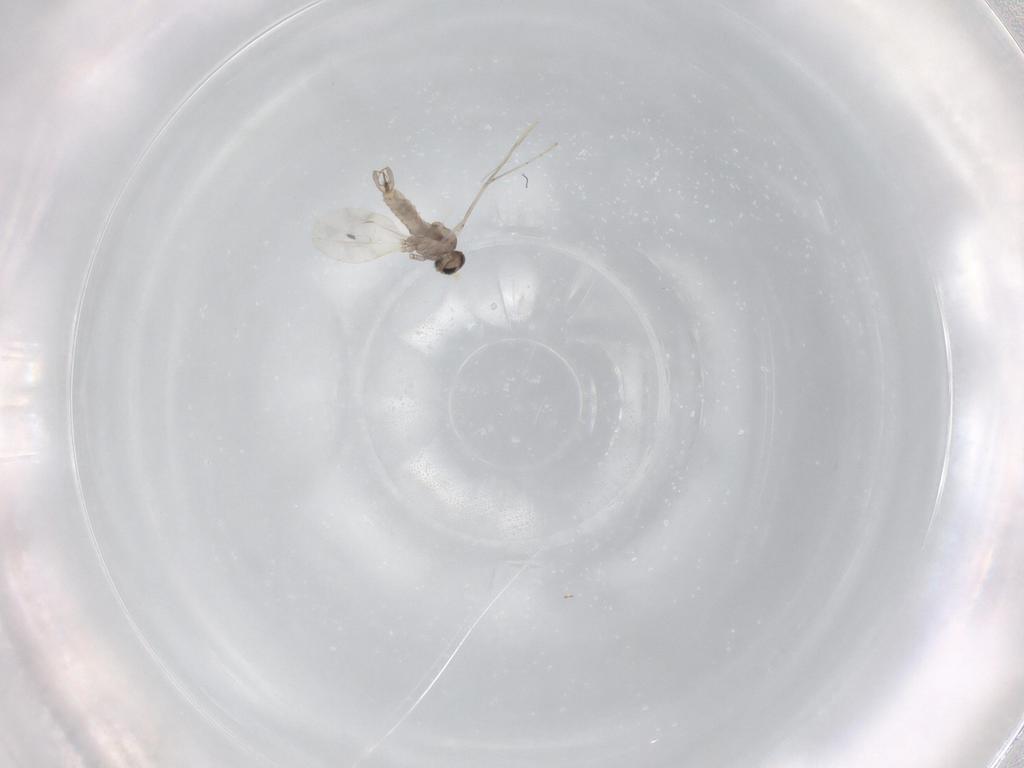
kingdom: Animalia
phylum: Arthropoda
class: Insecta
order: Diptera
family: Cecidomyiidae
